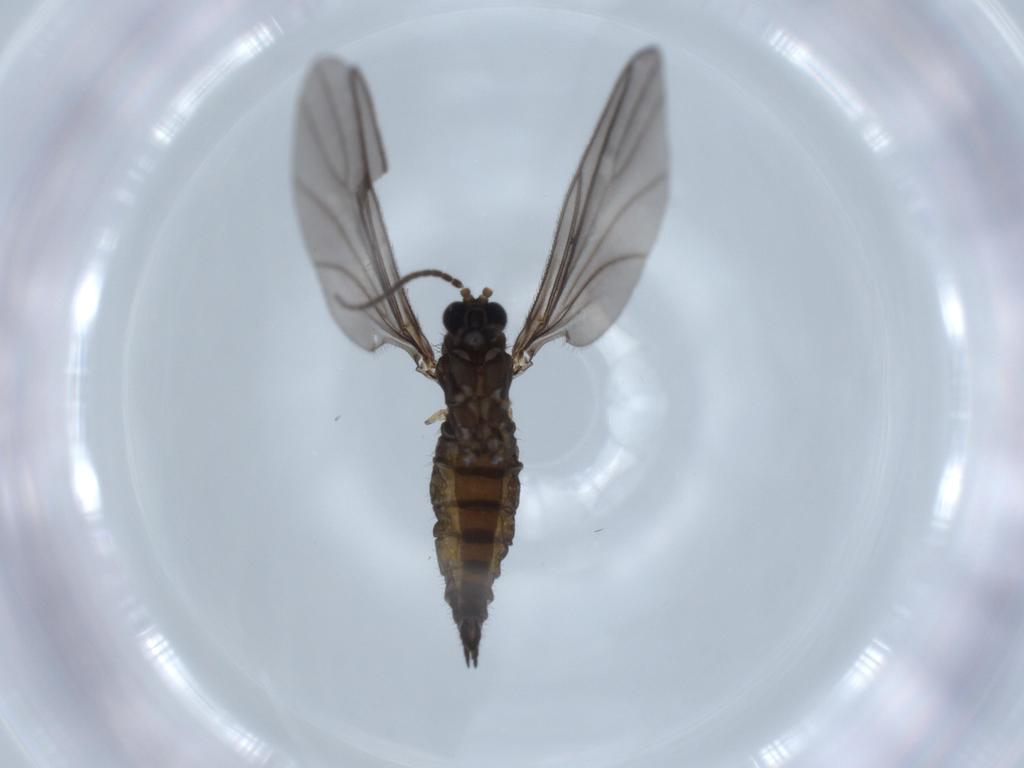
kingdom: Animalia
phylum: Arthropoda
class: Insecta
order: Diptera
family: Sciaridae
